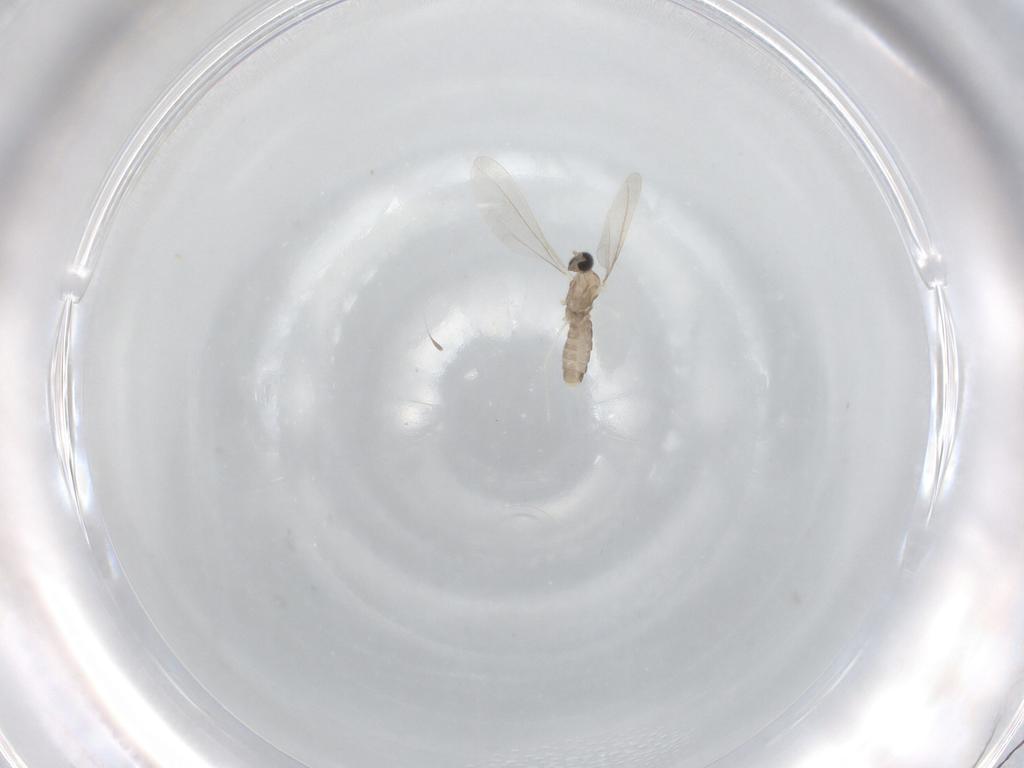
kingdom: Animalia
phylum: Arthropoda
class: Insecta
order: Diptera
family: Cecidomyiidae
